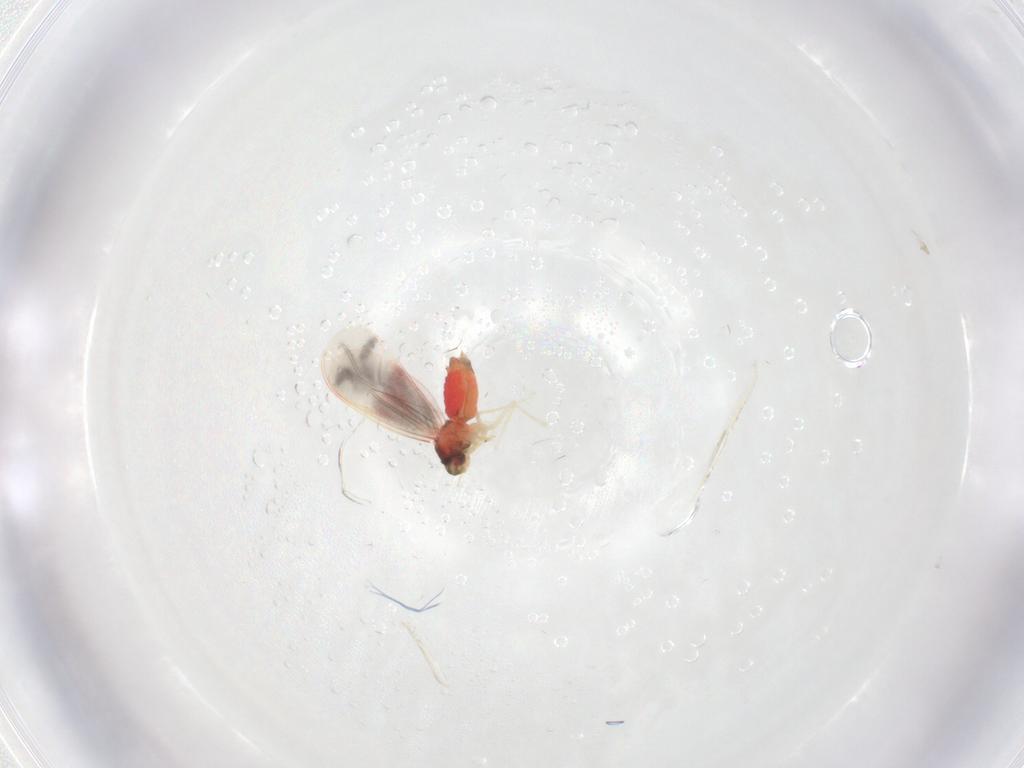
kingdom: Animalia
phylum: Arthropoda
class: Insecta
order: Hemiptera
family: Aleyrodidae
